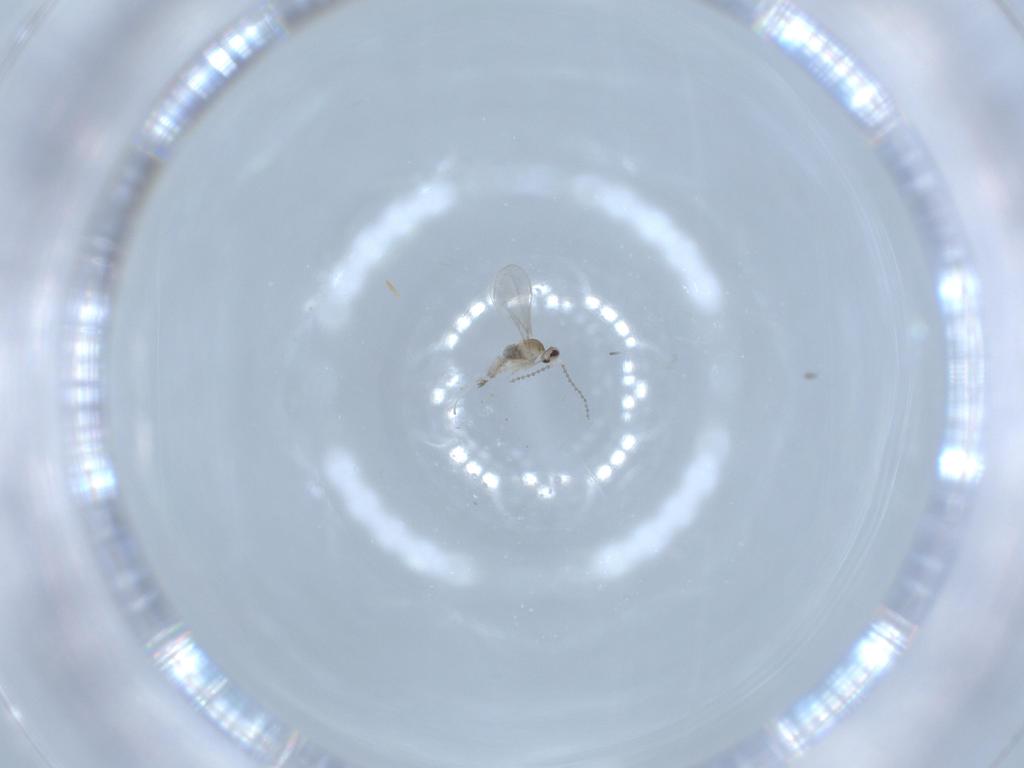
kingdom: Animalia
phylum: Arthropoda
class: Insecta
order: Diptera
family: Cecidomyiidae
